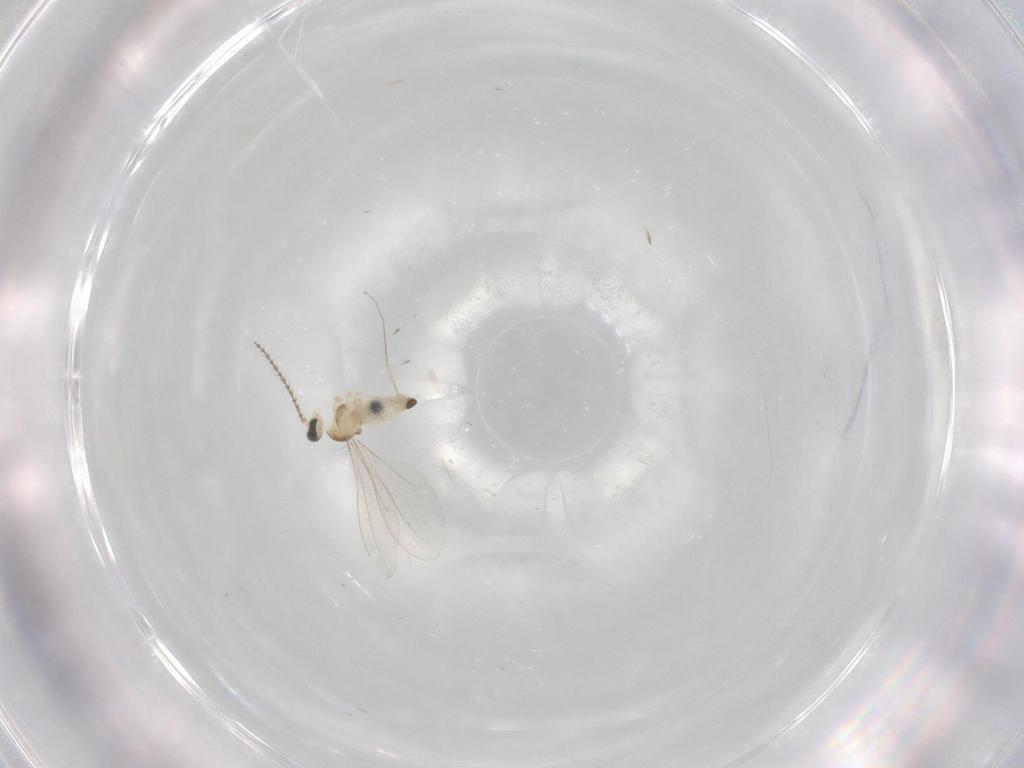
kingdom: Animalia
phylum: Arthropoda
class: Insecta
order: Diptera
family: Cecidomyiidae
